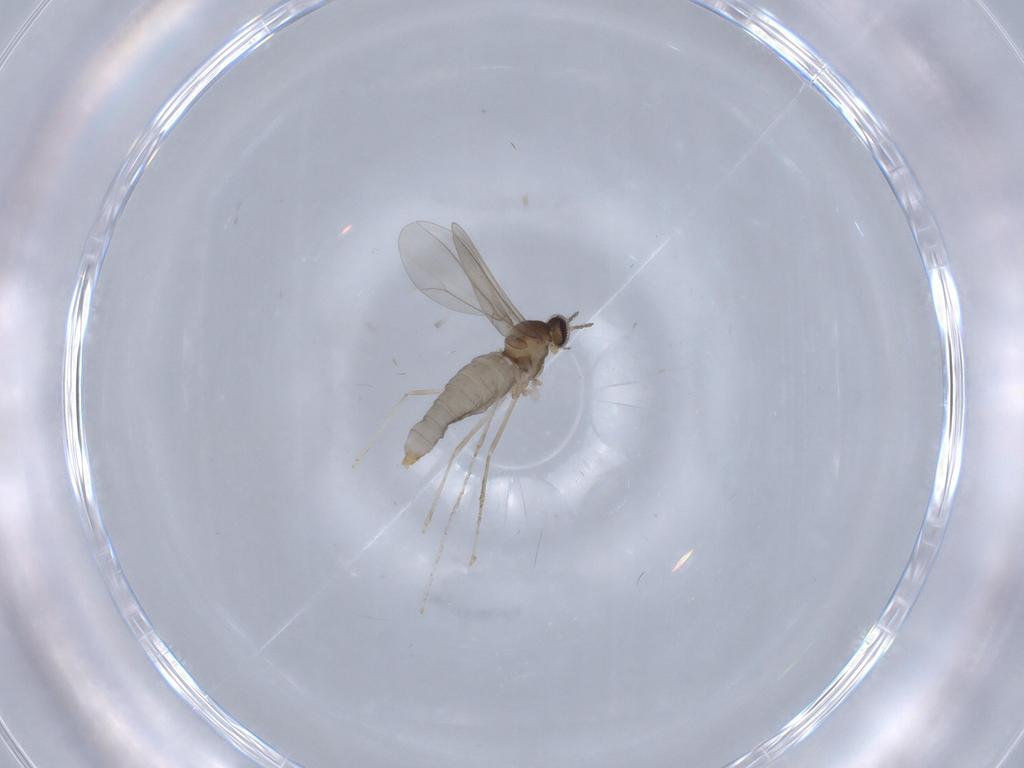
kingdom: Animalia
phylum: Arthropoda
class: Insecta
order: Diptera
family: Cecidomyiidae
